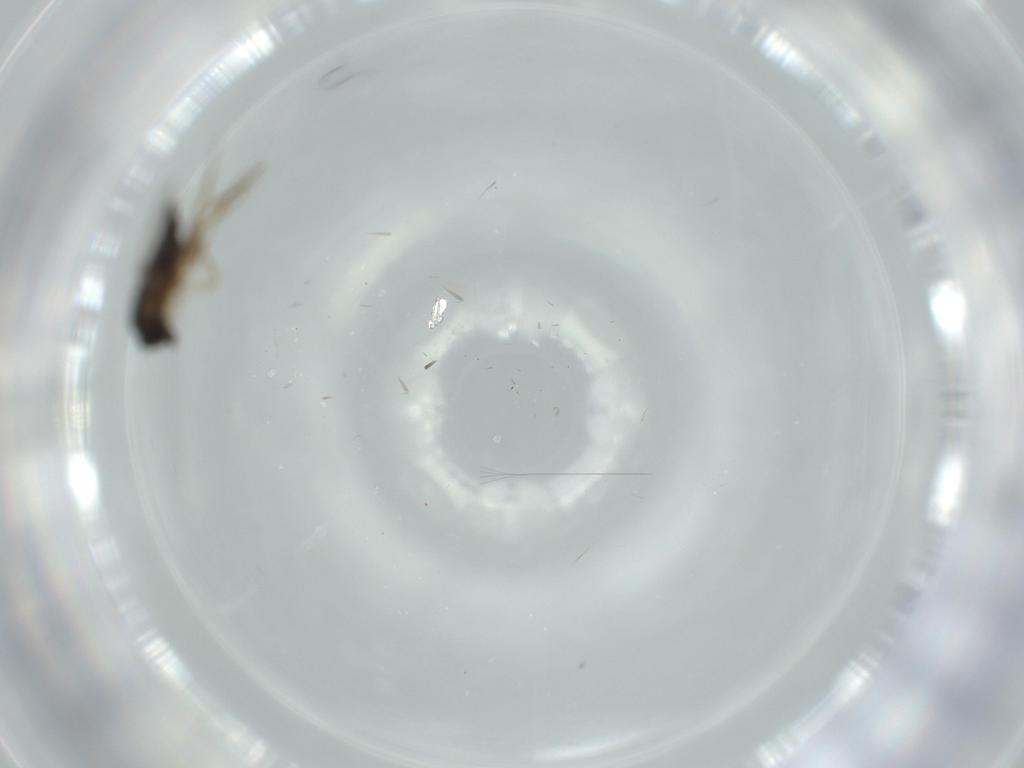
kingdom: Animalia
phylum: Arthropoda
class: Insecta
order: Diptera
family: Phoridae
